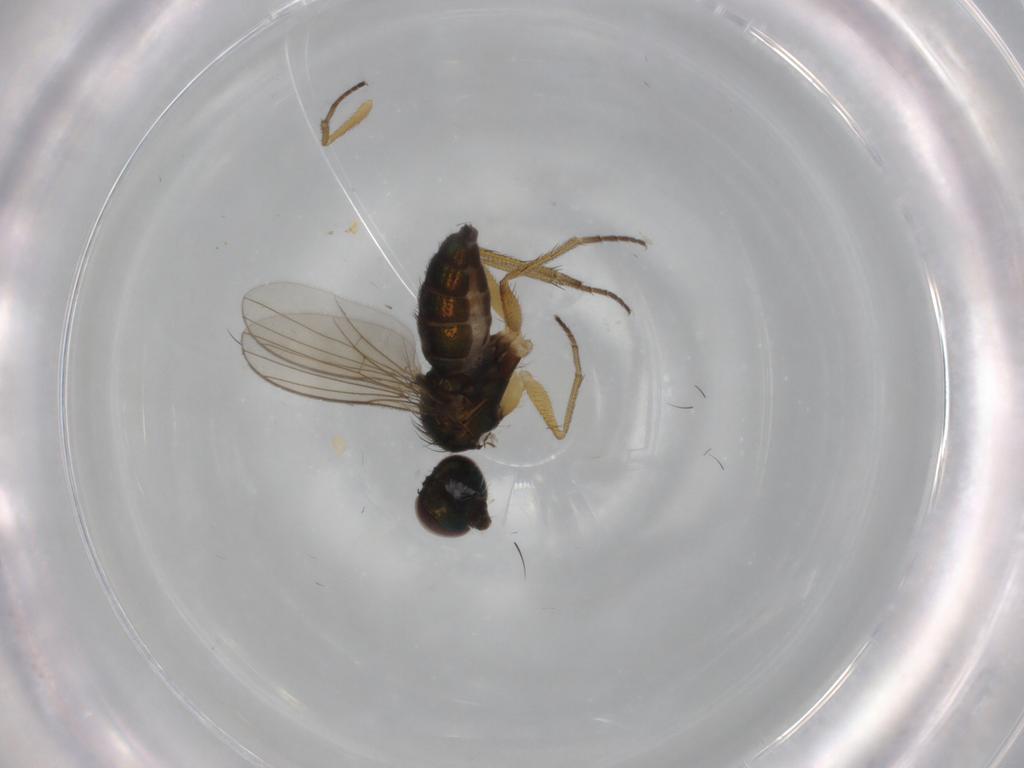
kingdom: Animalia
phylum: Arthropoda
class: Insecta
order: Diptera
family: Dolichopodidae
